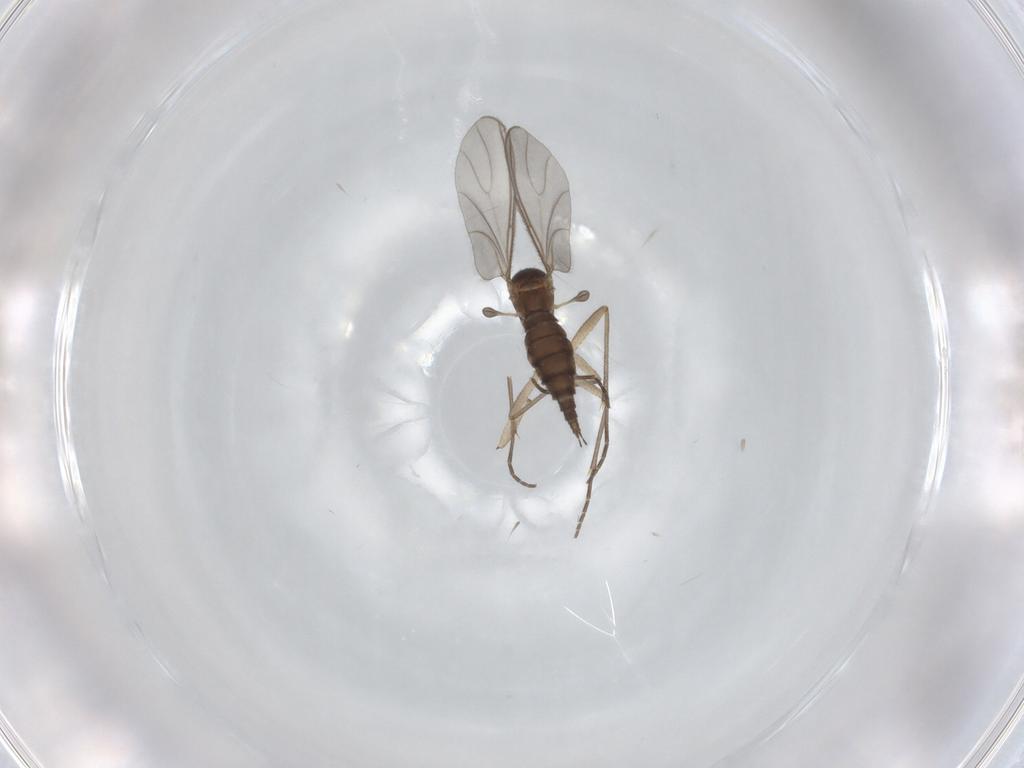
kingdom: Animalia
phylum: Arthropoda
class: Insecta
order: Diptera
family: Sciaridae
